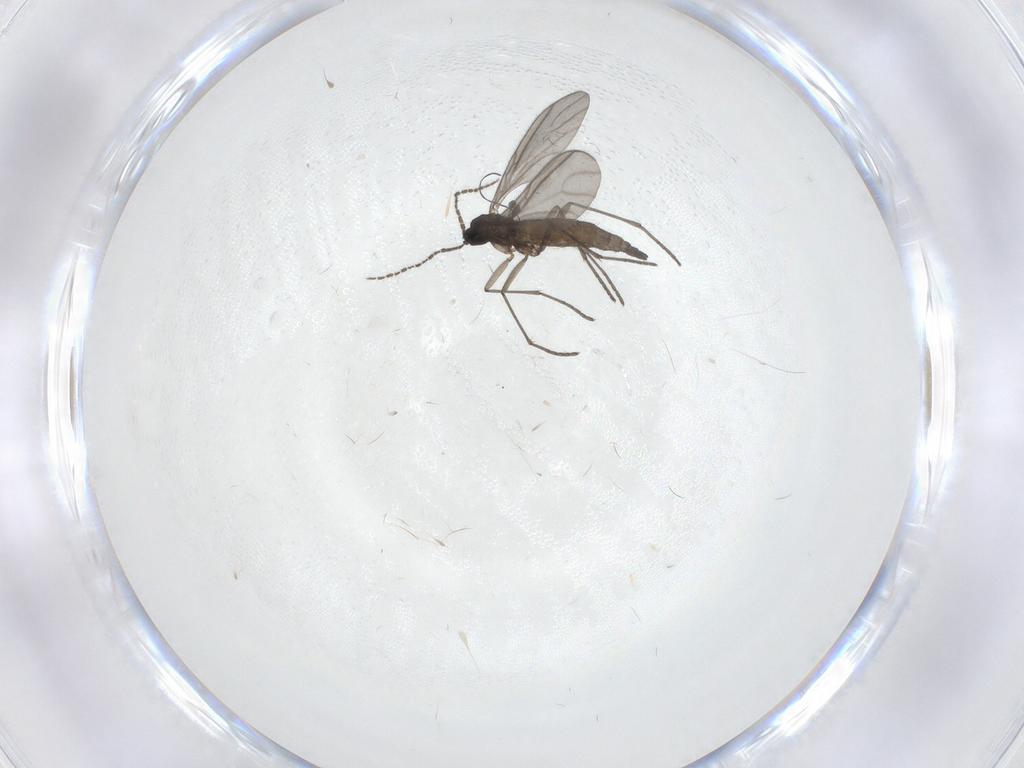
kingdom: Animalia
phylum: Arthropoda
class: Insecta
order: Diptera
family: Sciaridae
